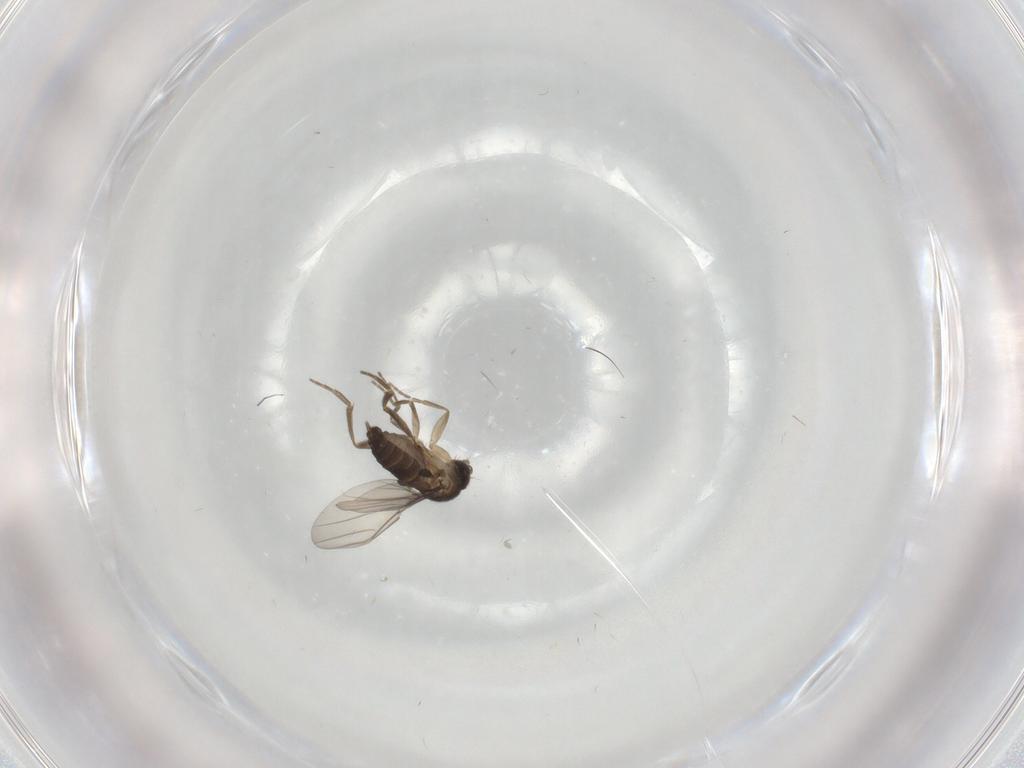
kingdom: Animalia
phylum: Arthropoda
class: Insecta
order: Diptera
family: Phoridae
